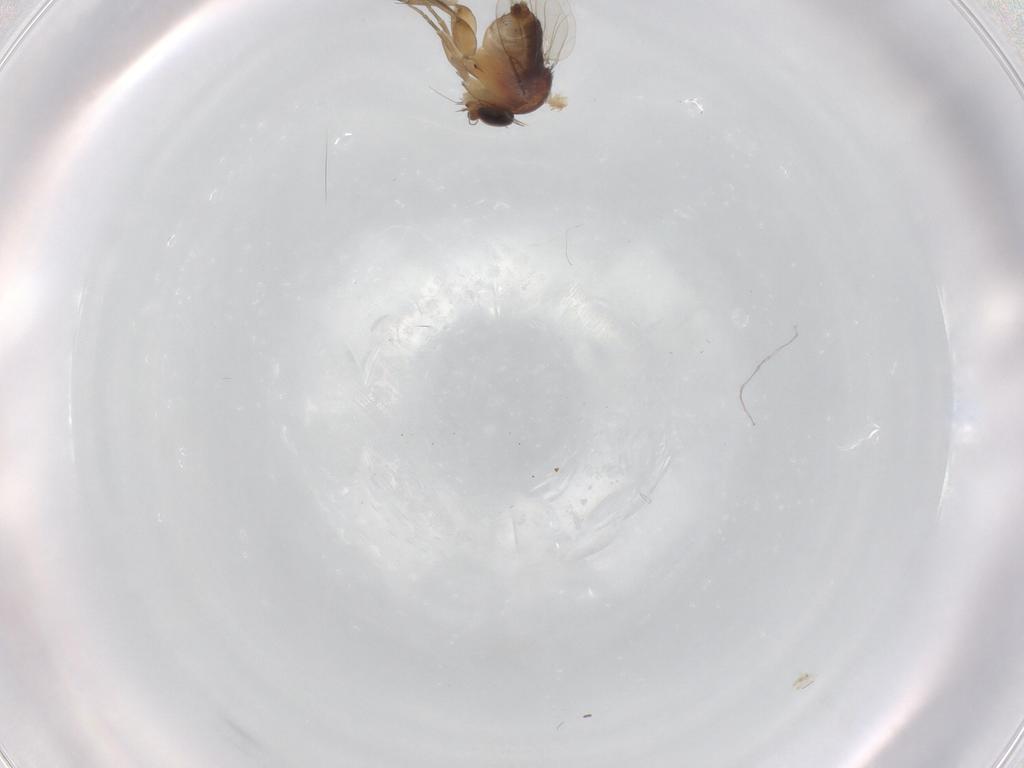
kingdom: Animalia
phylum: Arthropoda
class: Insecta
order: Diptera
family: Phoridae
